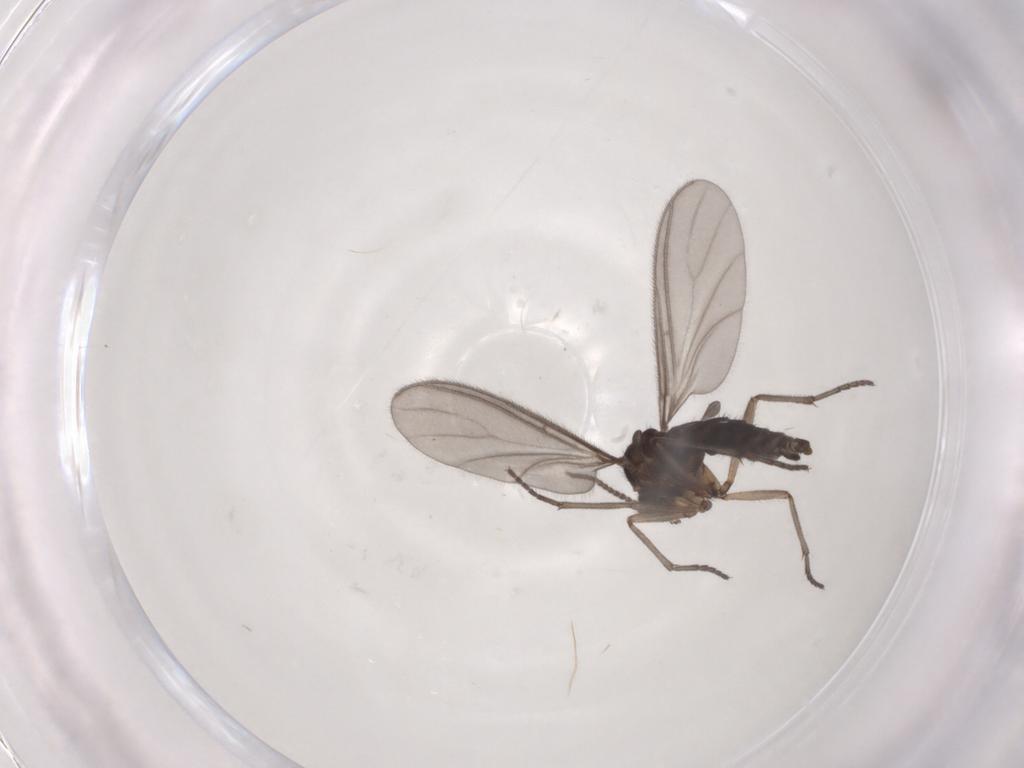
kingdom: Animalia
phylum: Arthropoda
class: Insecta
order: Diptera
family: Sciaridae
